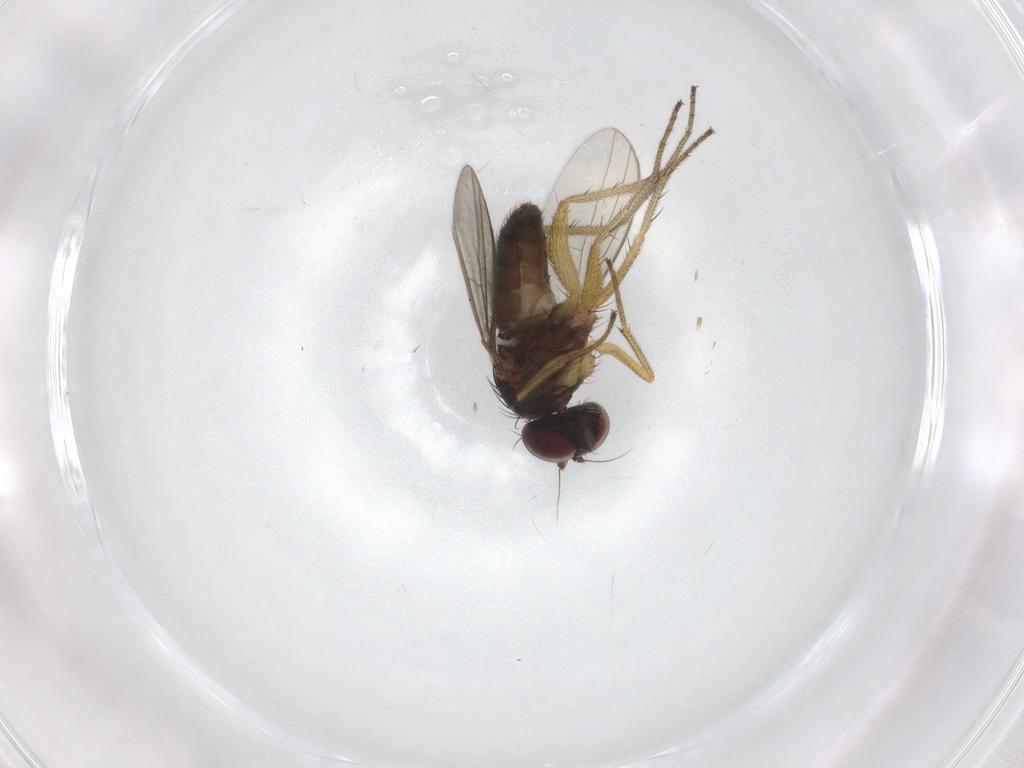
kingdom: Animalia
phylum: Arthropoda
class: Insecta
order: Diptera
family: Dolichopodidae
